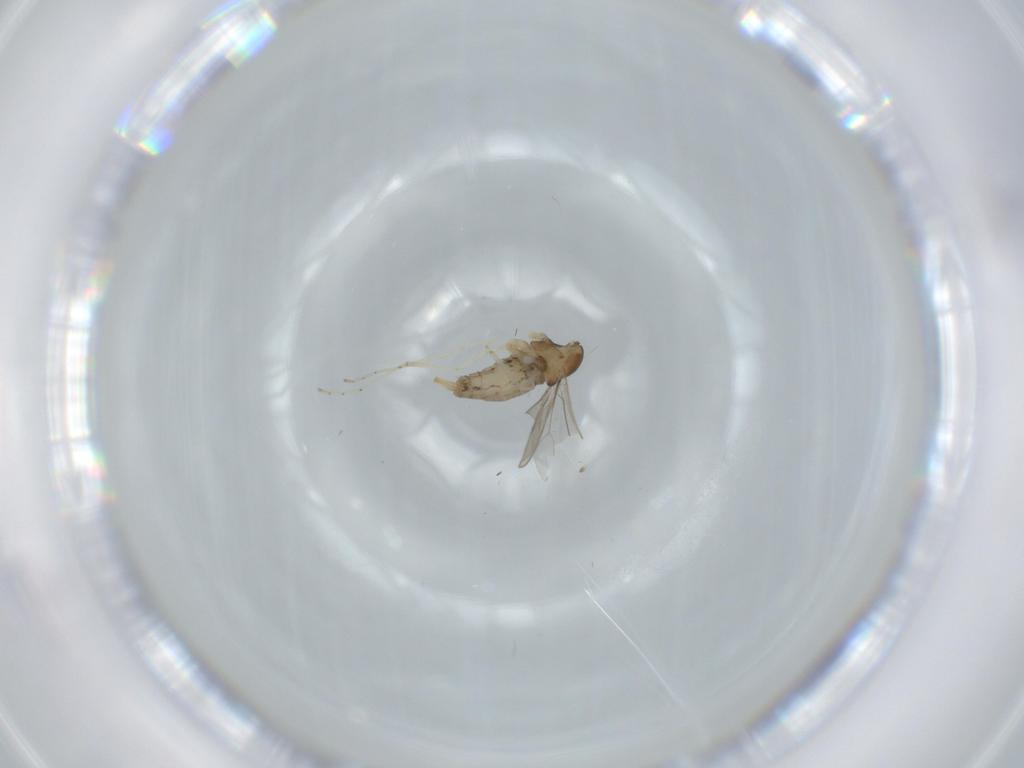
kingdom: Animalia
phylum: Arthropoda
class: Insecta
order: Diptera
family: Cecidomyiidae
